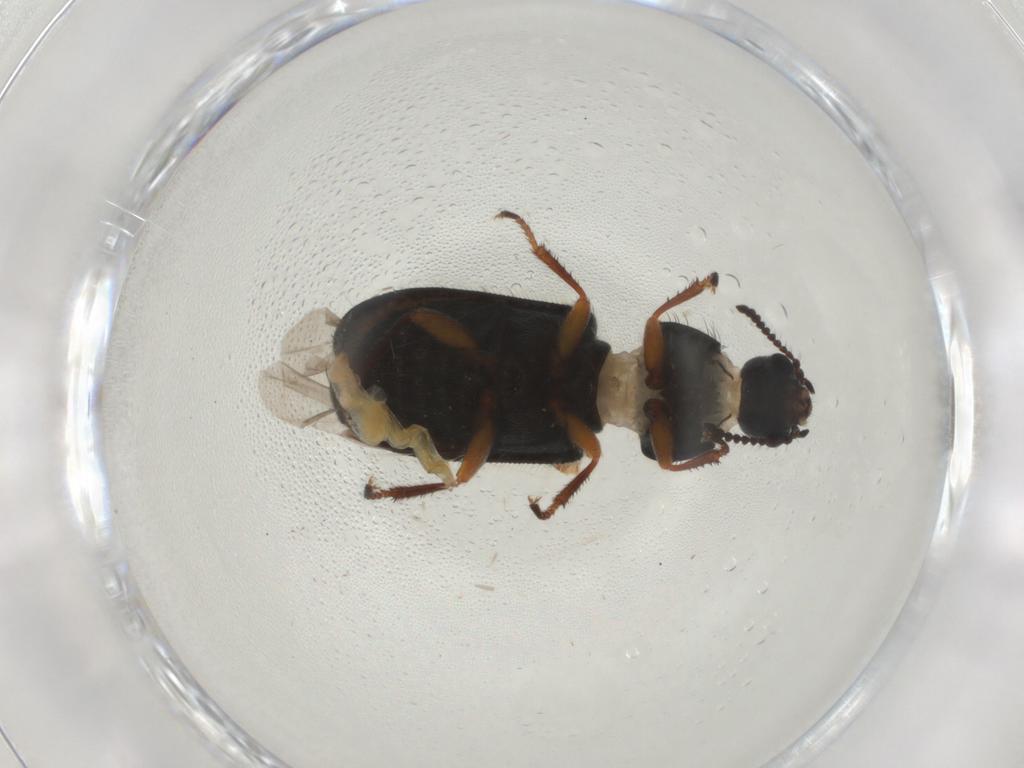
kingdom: Animalia
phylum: Arthropoda
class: Insecta
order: Coleoptera
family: Melyridae
